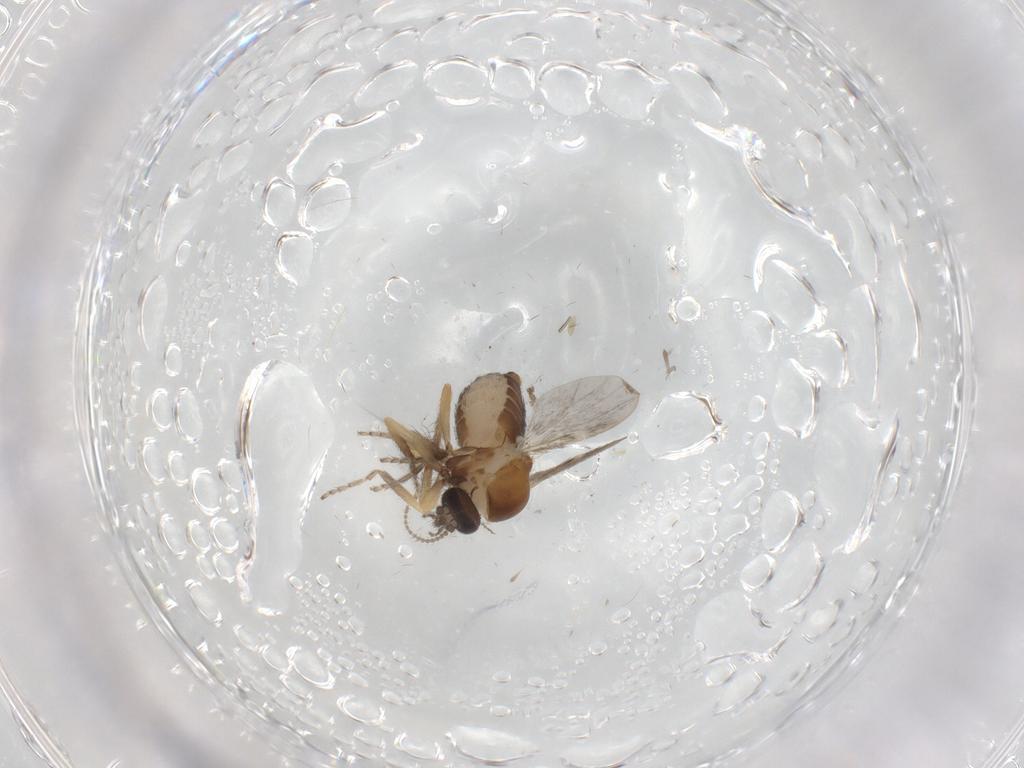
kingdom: Animalia
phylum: Arthropoda
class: Insecta
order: Diptera
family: Ceratopogonidae
